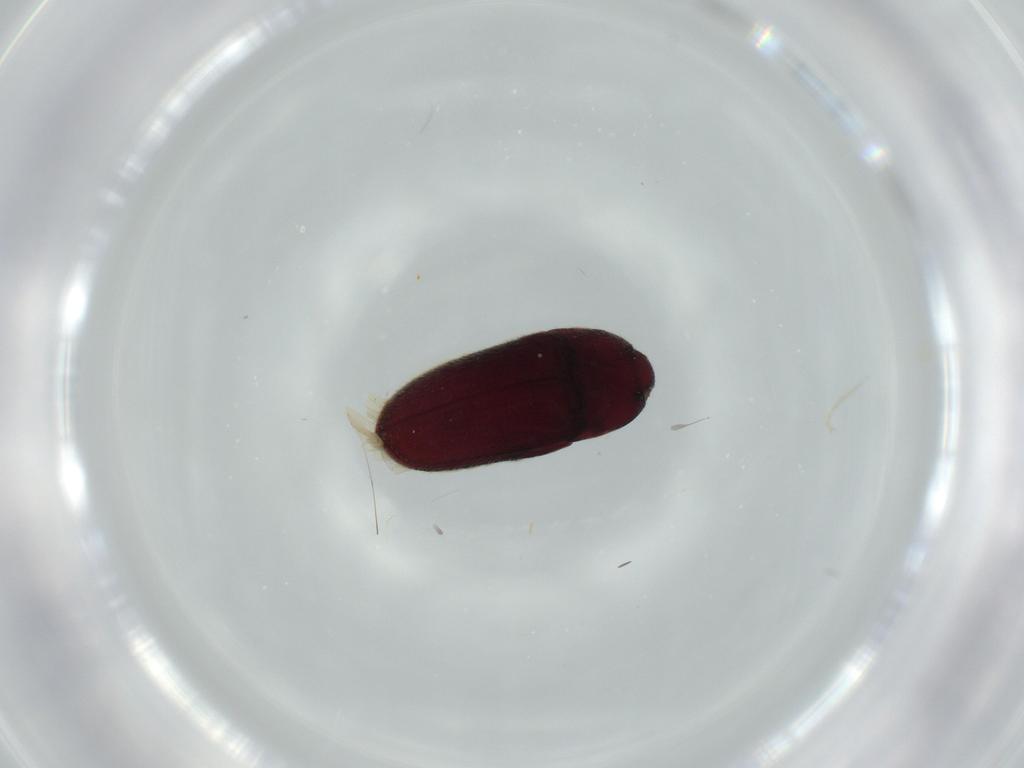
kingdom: Animalia
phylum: Arthropoda
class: Insecta
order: Coleoptera
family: Throscidae
